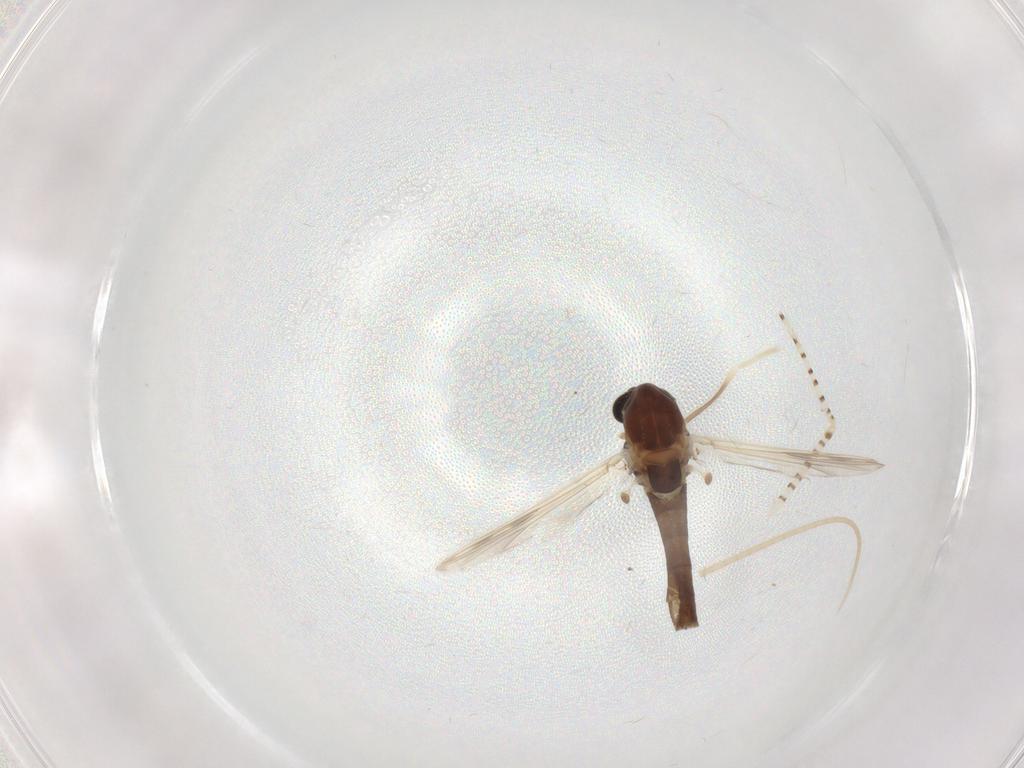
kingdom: Animalia
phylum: Arthropoda
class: Insecta
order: Diptera
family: Chironomidae
